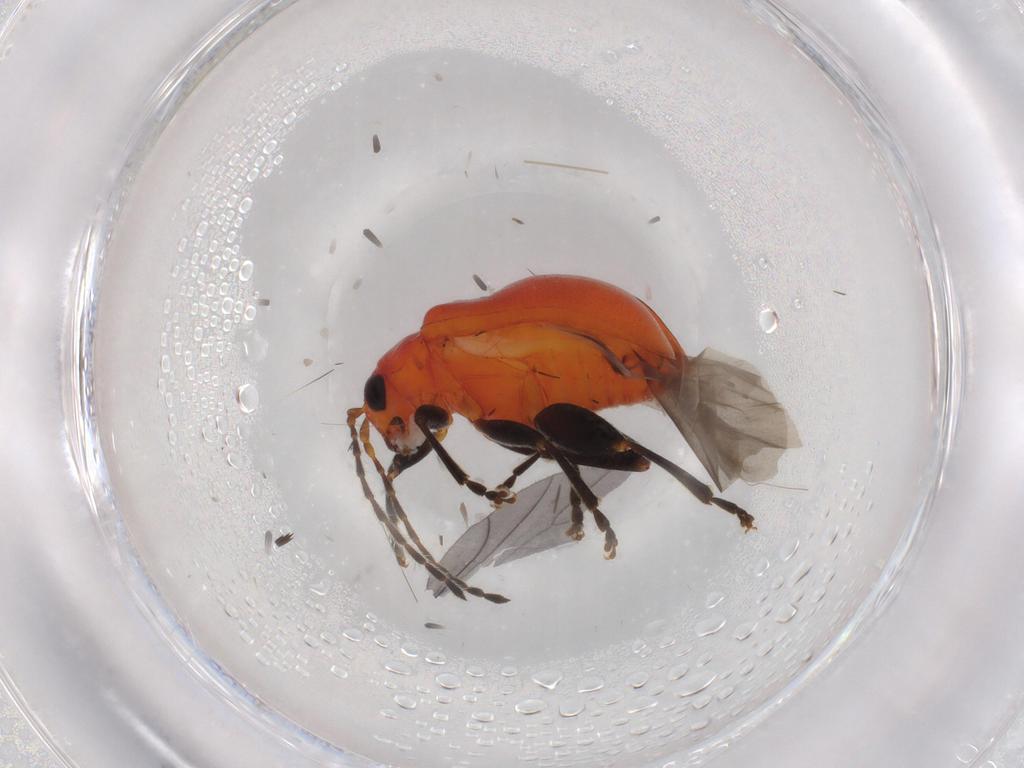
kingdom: Animalia
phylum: Arthropoda
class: Insecta
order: Coleoptera
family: Chrysomelidae
